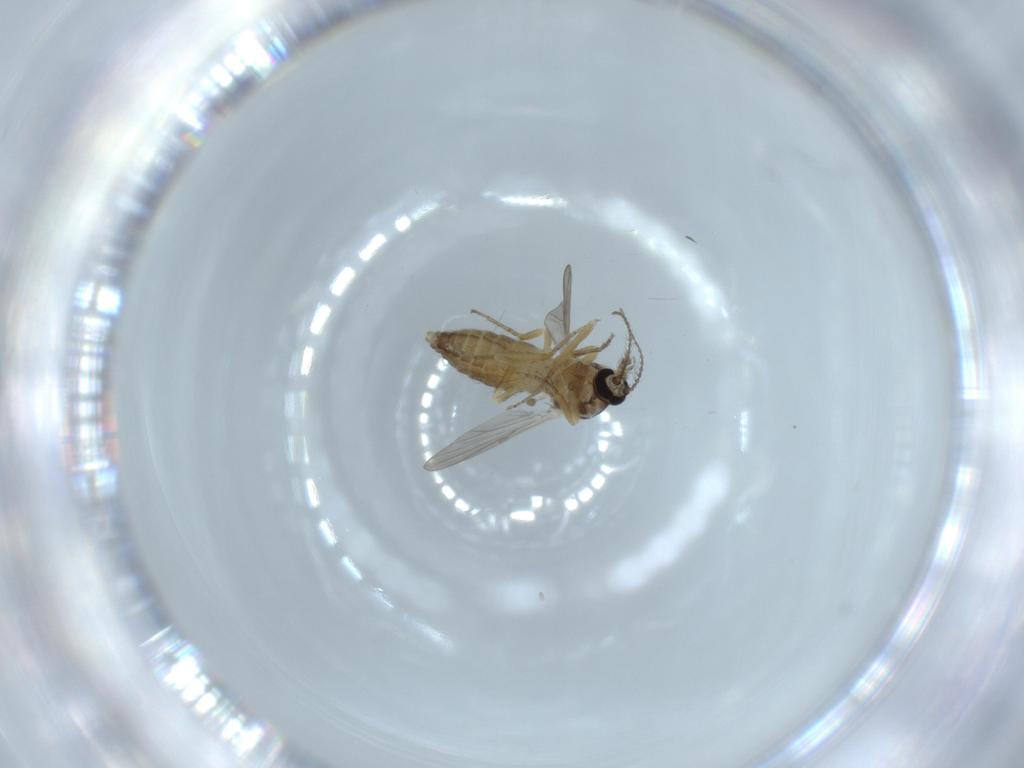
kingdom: Animalia
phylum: Arthropoda
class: Insecta
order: Diptera
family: Ceratopogonidae
